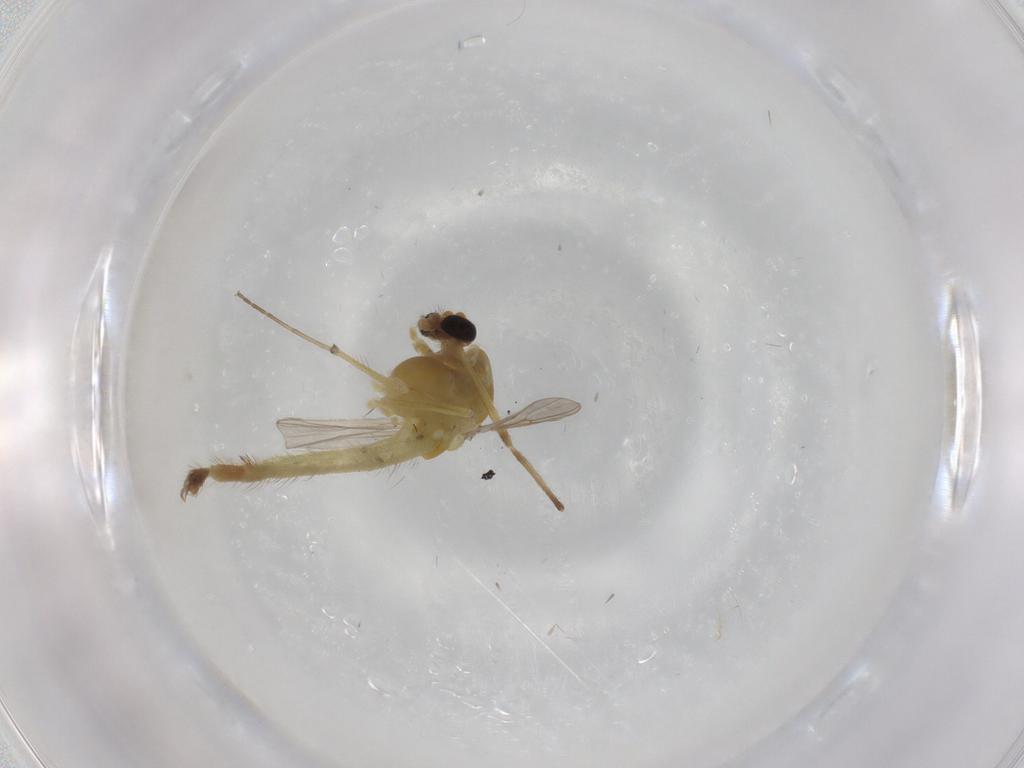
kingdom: Animalia
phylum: Arthropoda
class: Insecta
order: Diptera
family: Chironomidae
